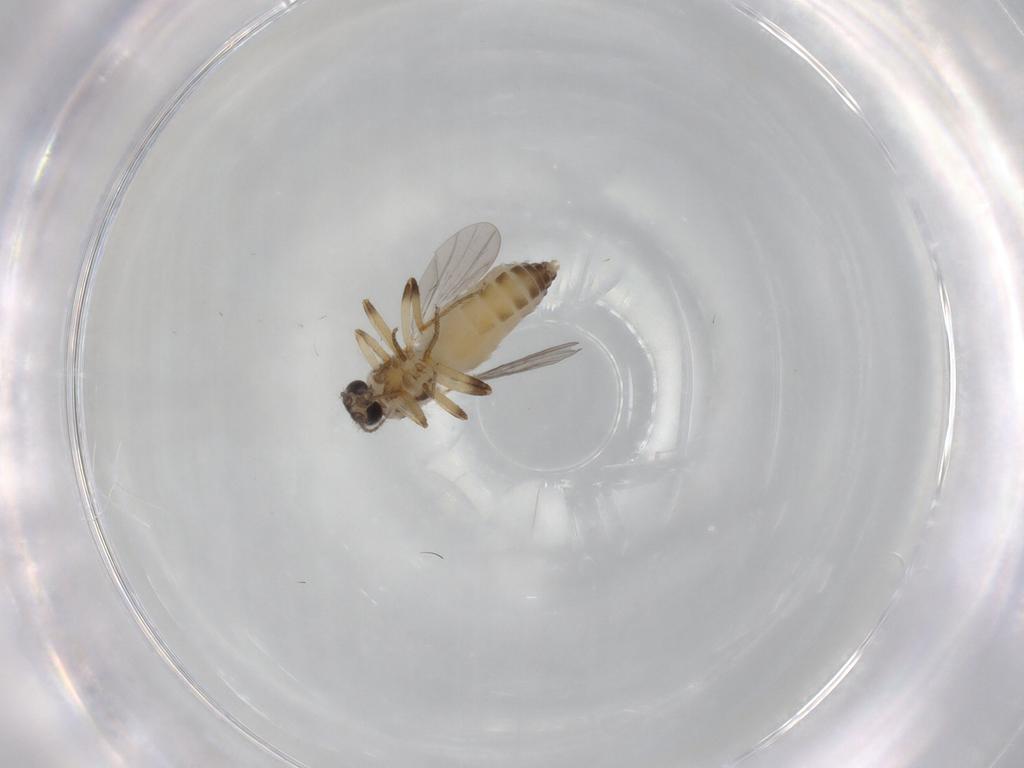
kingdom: Animalia
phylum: Arthropoda
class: Insecta
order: Diptera
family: Ceratopogonidae
